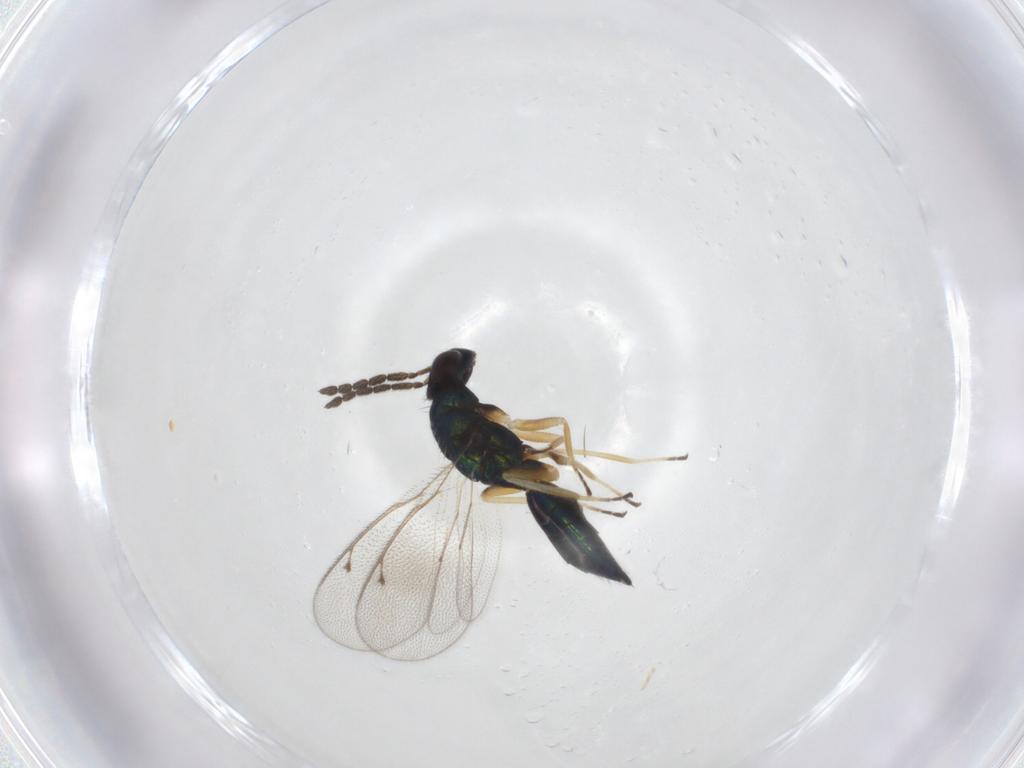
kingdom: Animalia
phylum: Arthropoda
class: Insecta
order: Hymenoptera
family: Eulophidae
